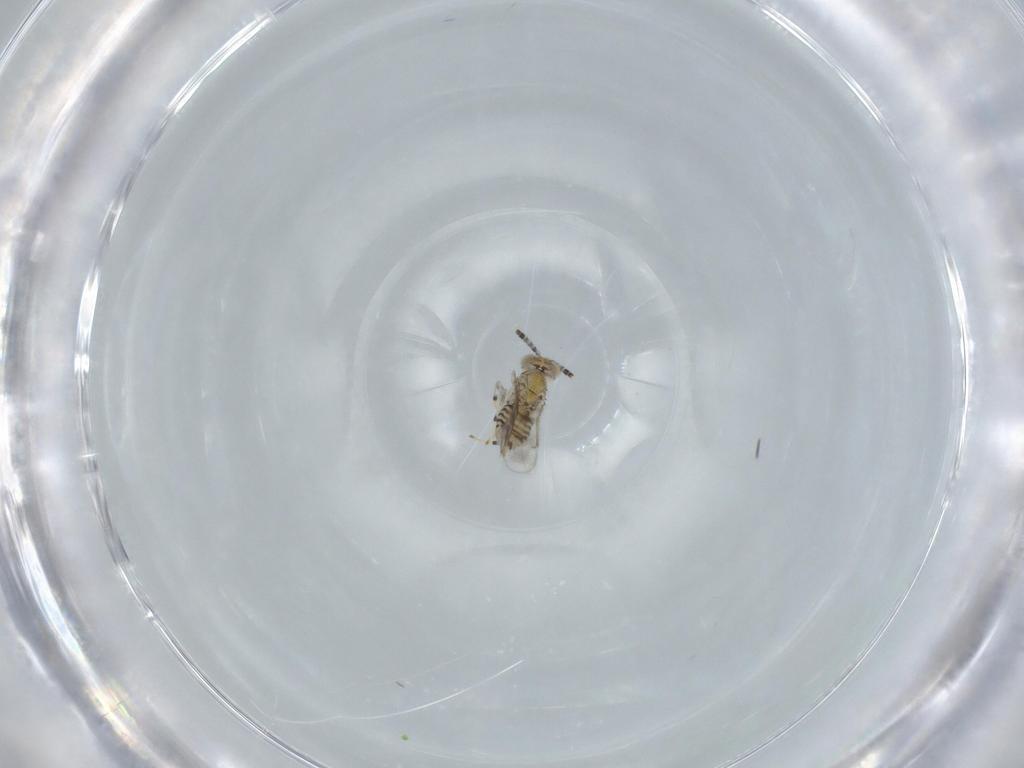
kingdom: Animalia
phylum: Arthropoda
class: Insecta
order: Hymenoptera
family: Aphelinidae
